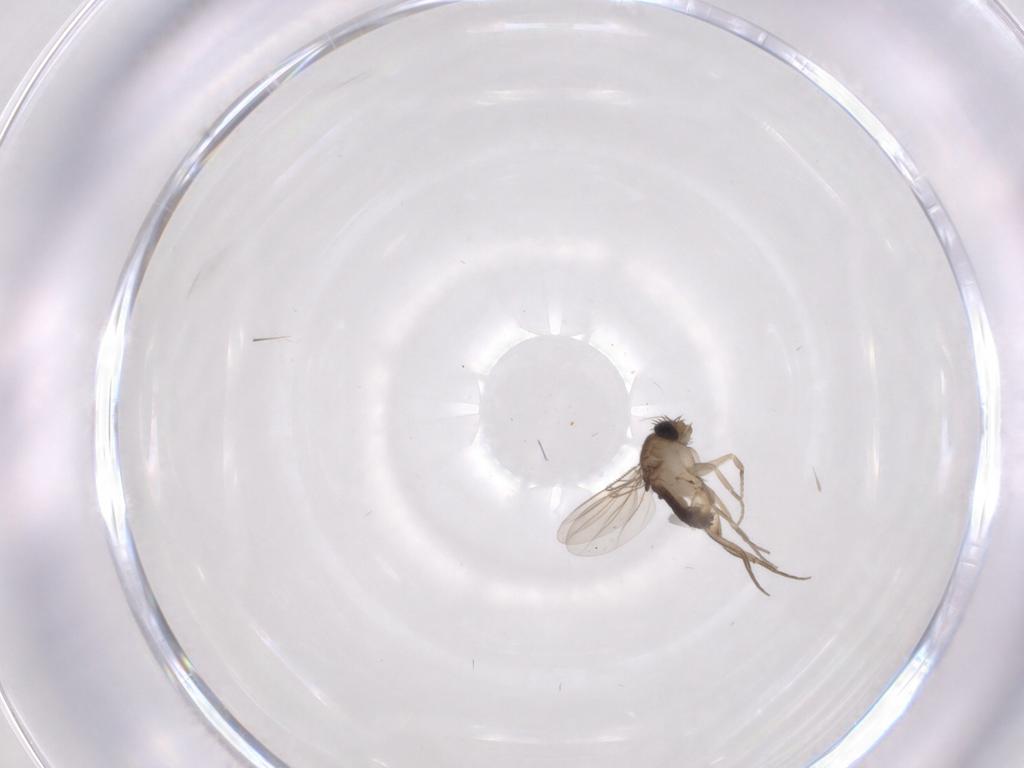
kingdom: Animalia
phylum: Arthropoda
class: Insecta
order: Diptera
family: Phoridae
